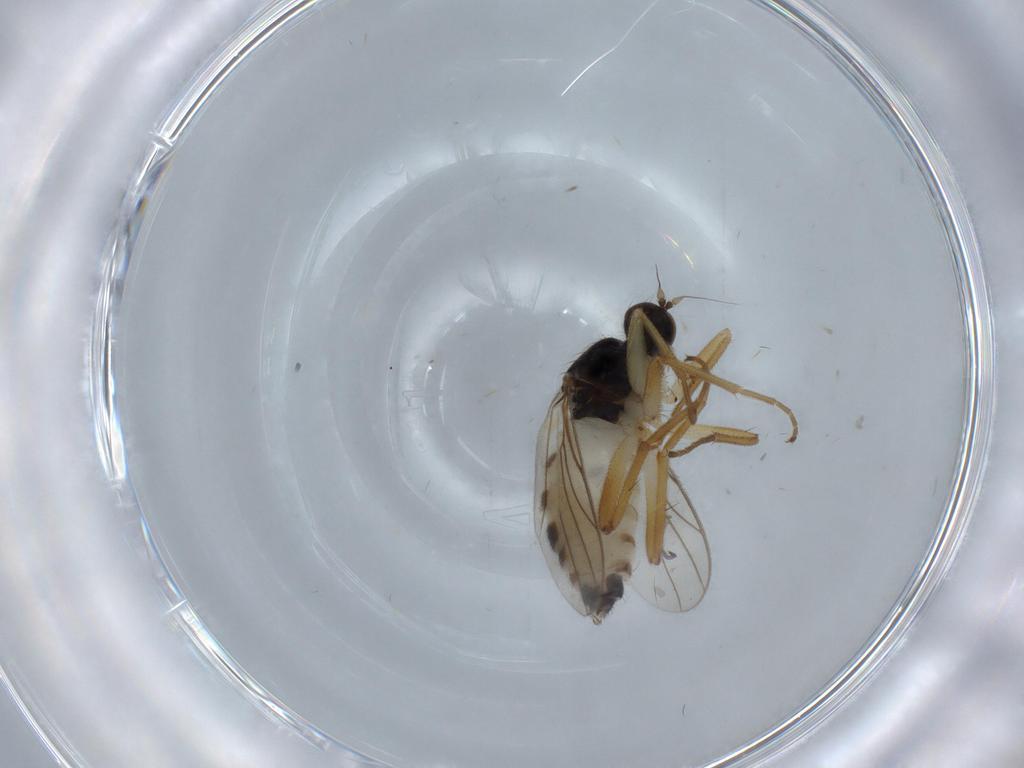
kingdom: Animalia
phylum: Arthropoda
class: Insecta
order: Diptera
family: Hybotidae
